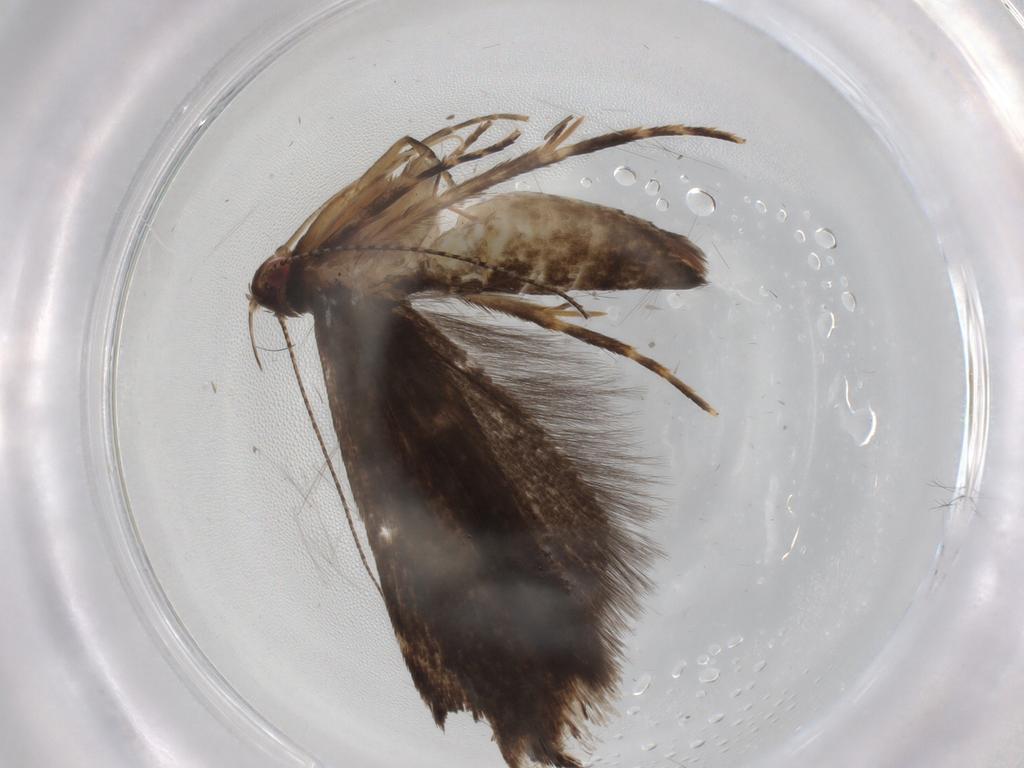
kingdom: Animalia
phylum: Arthropoda
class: Insecta
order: Lepidoptera
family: Gelechiidae
